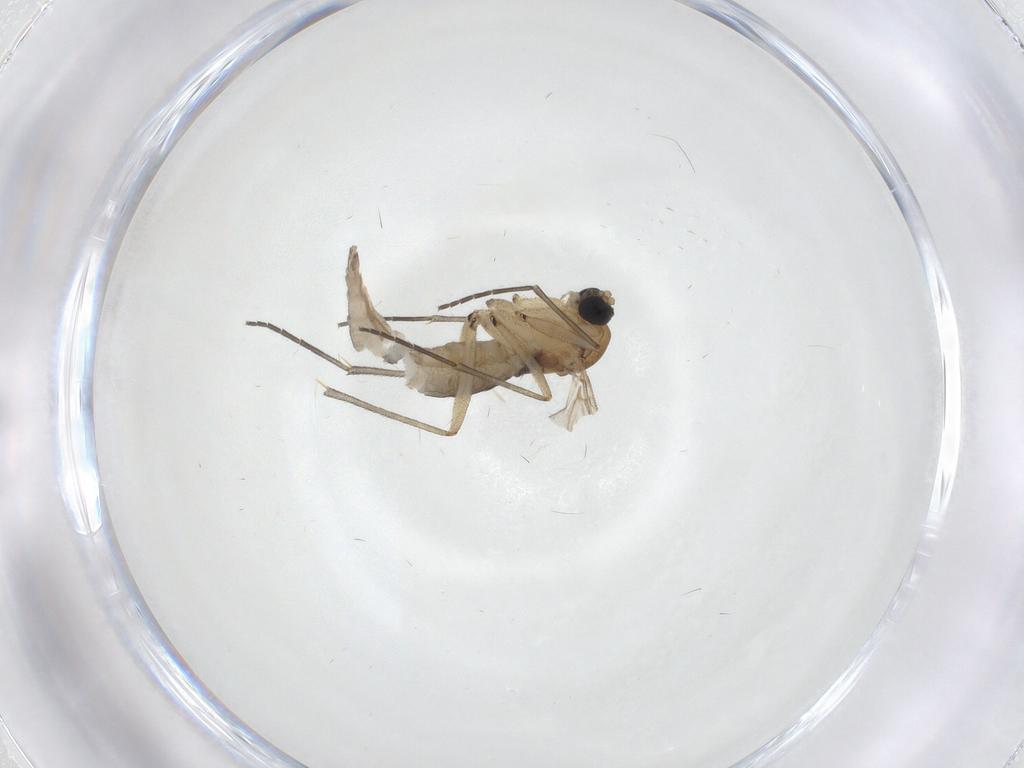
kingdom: Animalia
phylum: Arthropoda
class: Insecta
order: Diptera
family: Sciaridae
